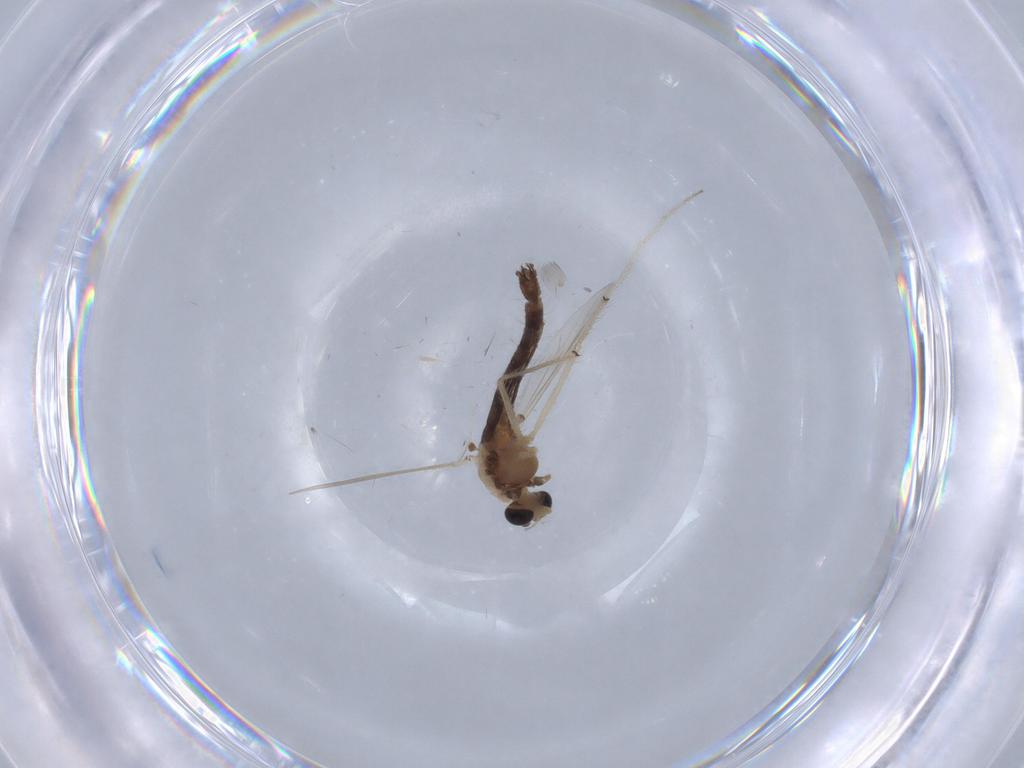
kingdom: Animalia
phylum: Arthropoda
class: Insecta
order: Diptera
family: Chironomidae
